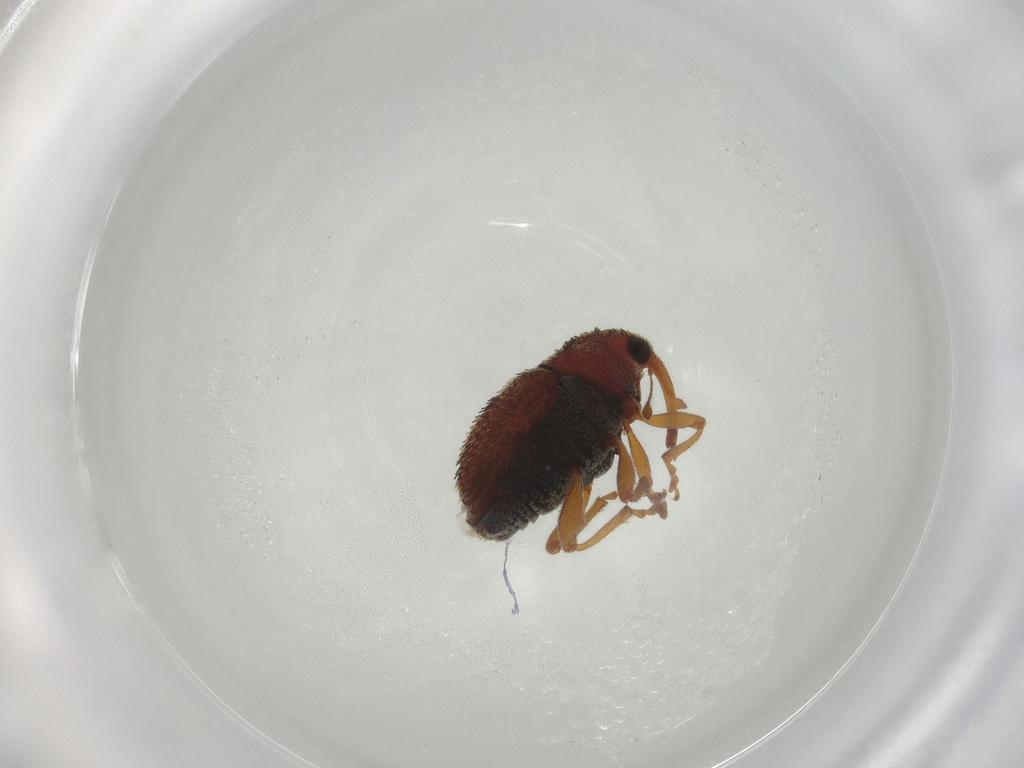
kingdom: Animalia
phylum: Arthropoda
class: Insecta
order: Coleoptera
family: Curculionidae
